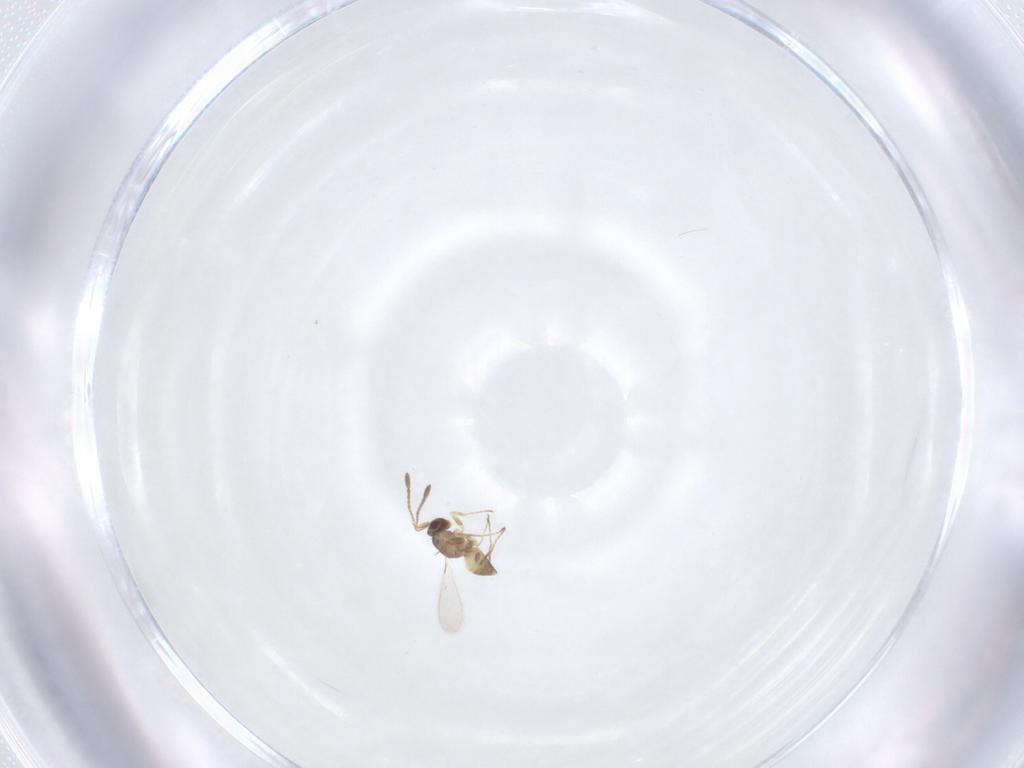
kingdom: Animalia
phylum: Arthropoda
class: Insecta
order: Hymenoptera
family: Mymaridae
